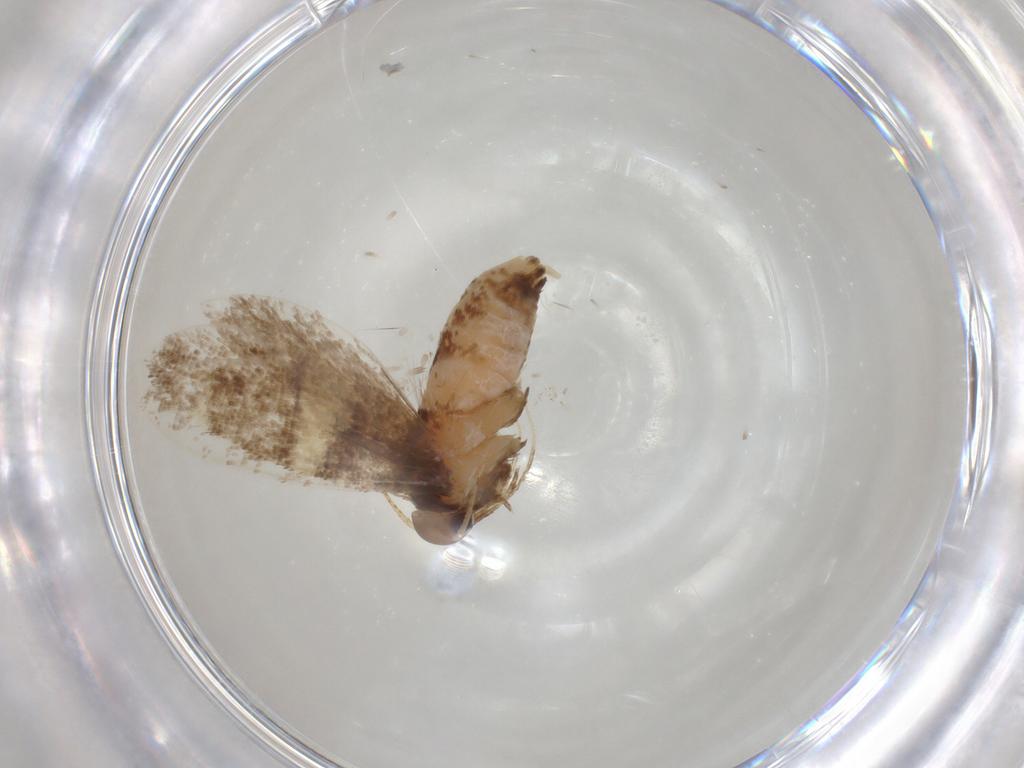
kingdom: Animalia
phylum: Arthropoda
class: Insecta
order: Lepidoptera
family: Oecophoridae
